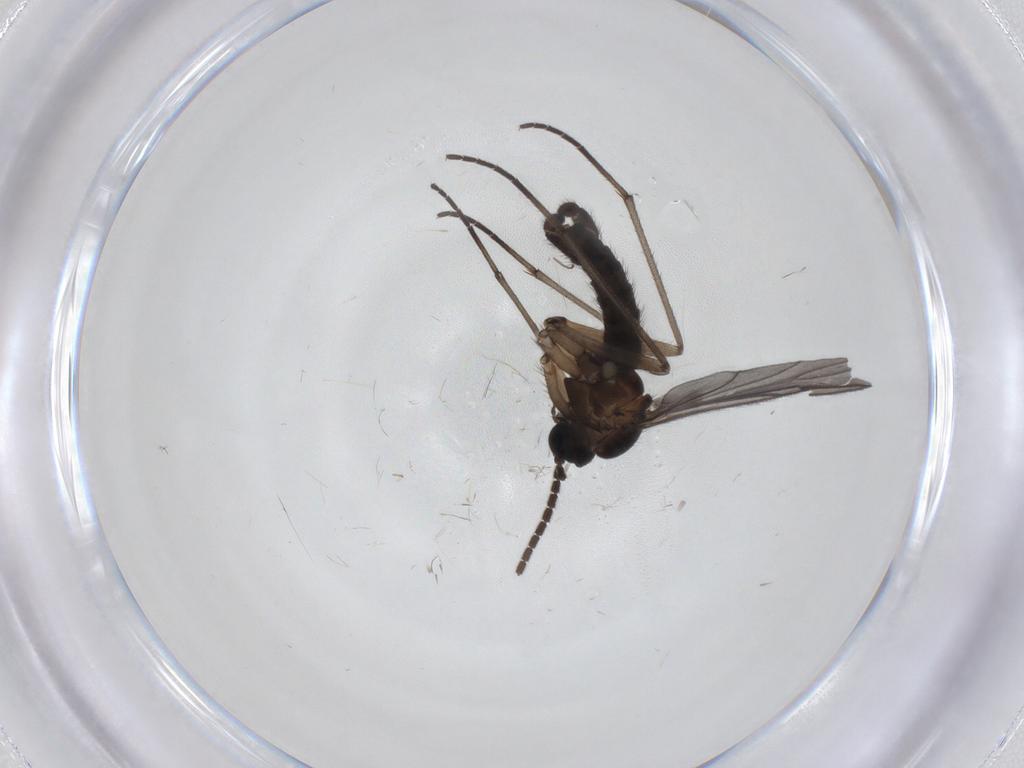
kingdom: Animalia
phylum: Arthropoda
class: Insecta
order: Diptera
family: Sciaridae
